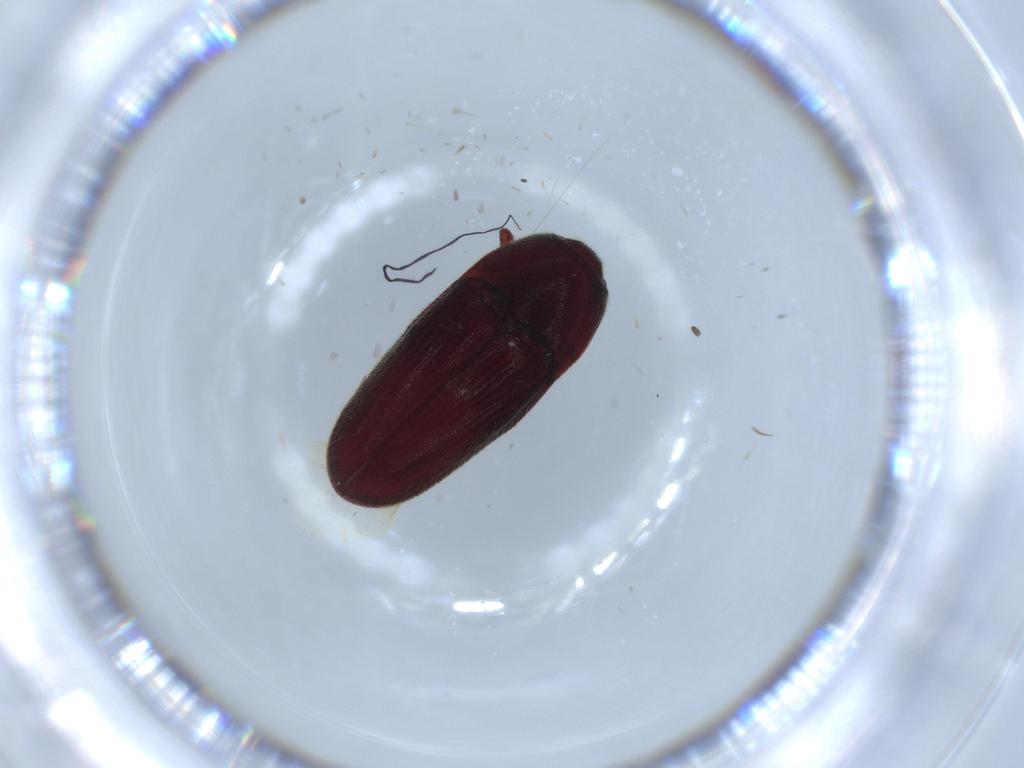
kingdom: Animalia
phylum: Arthropoda
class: Insecta
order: Coleoptera
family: Throscidae
